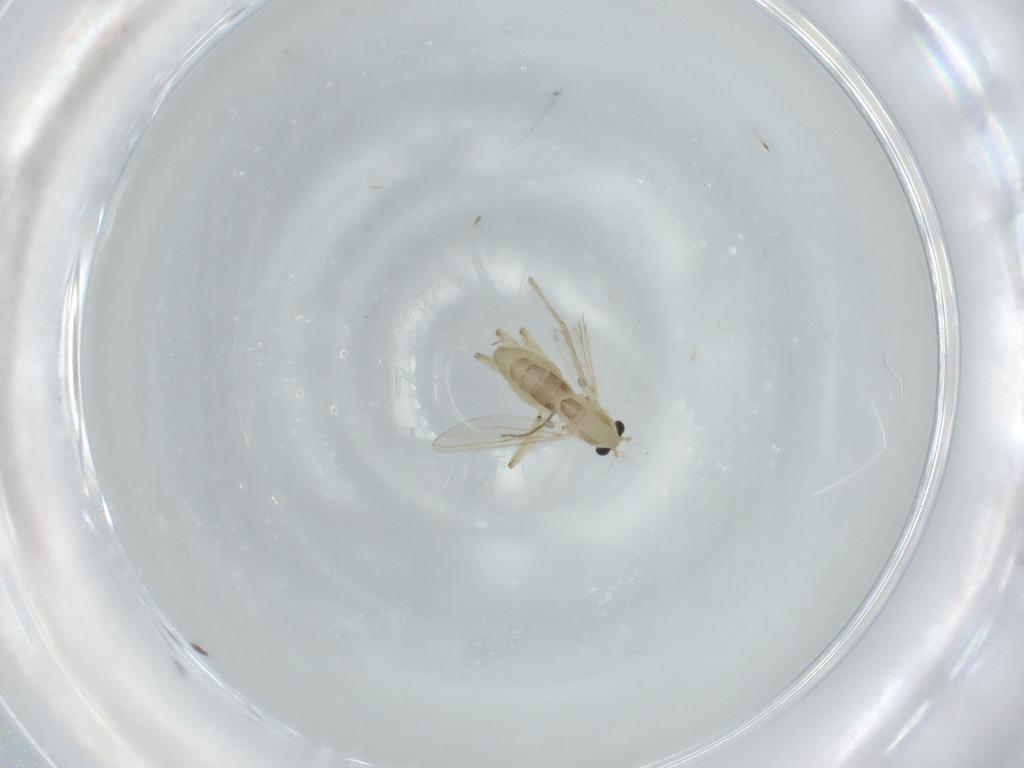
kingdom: Animalia
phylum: Arthropoda
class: Insecta
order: Diptera
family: Chironomidae
